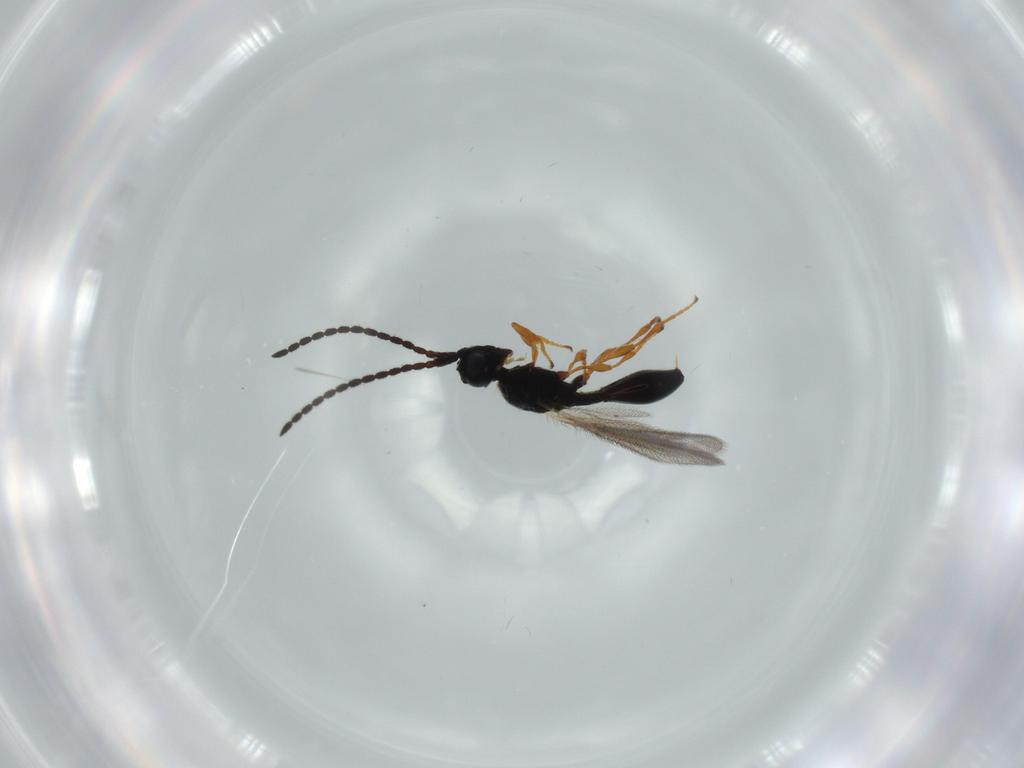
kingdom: Animalia
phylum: Arthropoda
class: Insecta
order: Hymenoptera
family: Diapriidae
